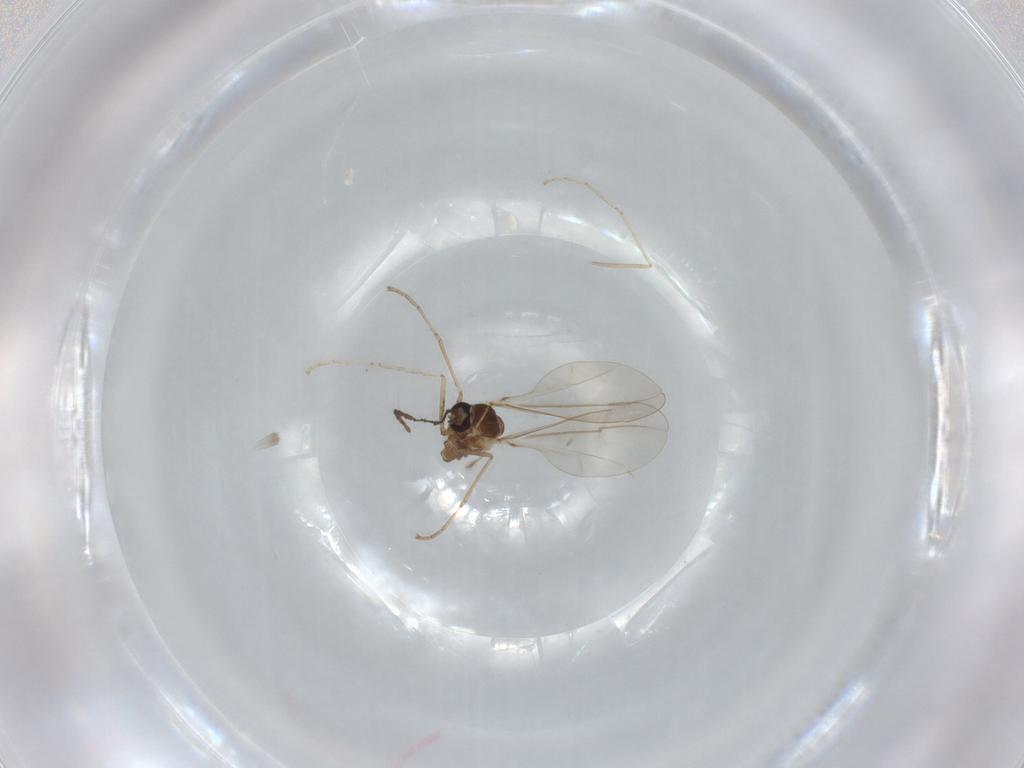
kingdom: Animalia
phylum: Arthropoda
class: Insecta
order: Diptera
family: Cecidomyiidae
